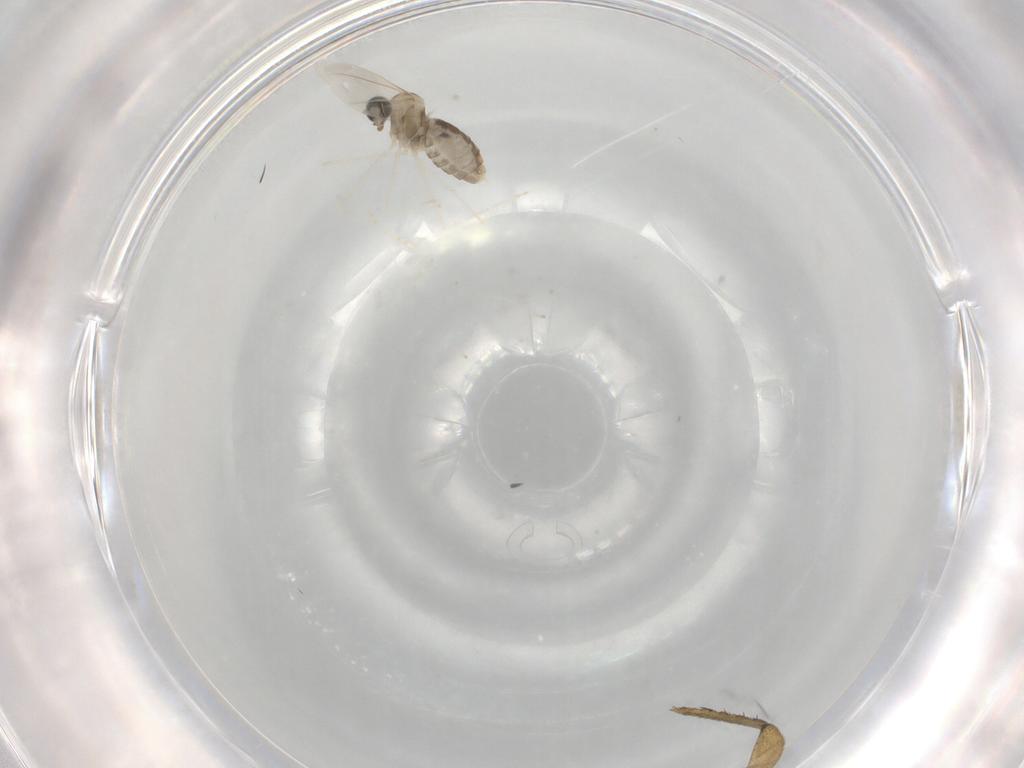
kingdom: Animalia
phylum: Arthropoda
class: Insecta
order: Diptera
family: Mycetophilidae
